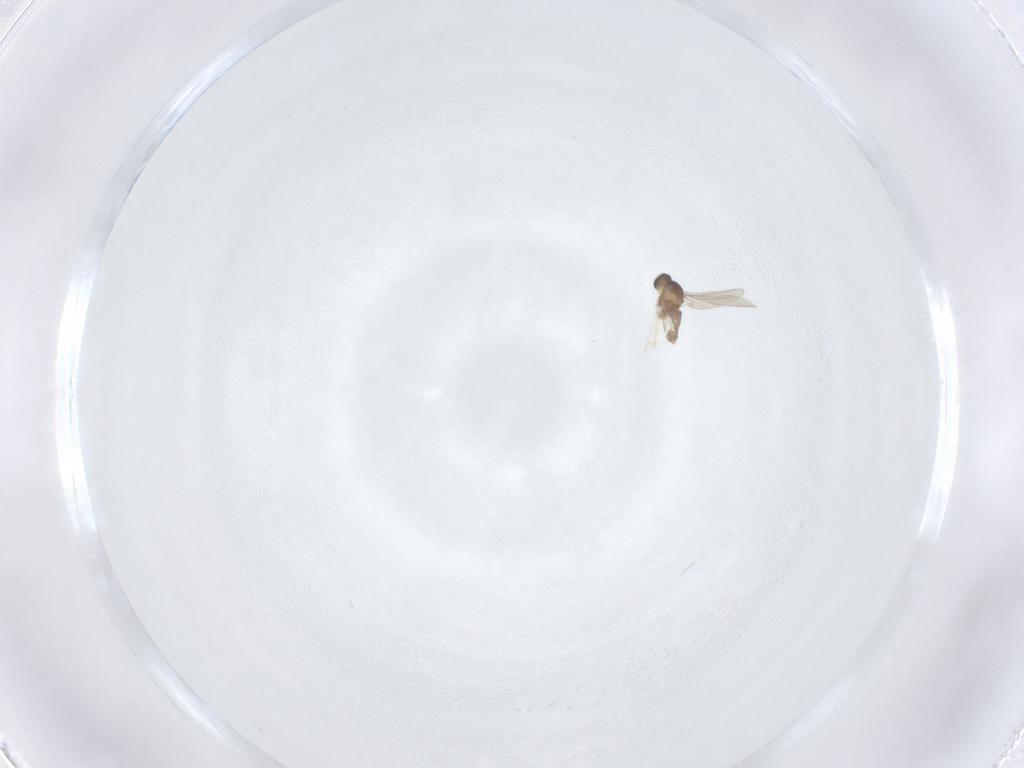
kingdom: Animalia
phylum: Arthropoda
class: Insecta
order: Diptera
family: Cecidomyiidae
